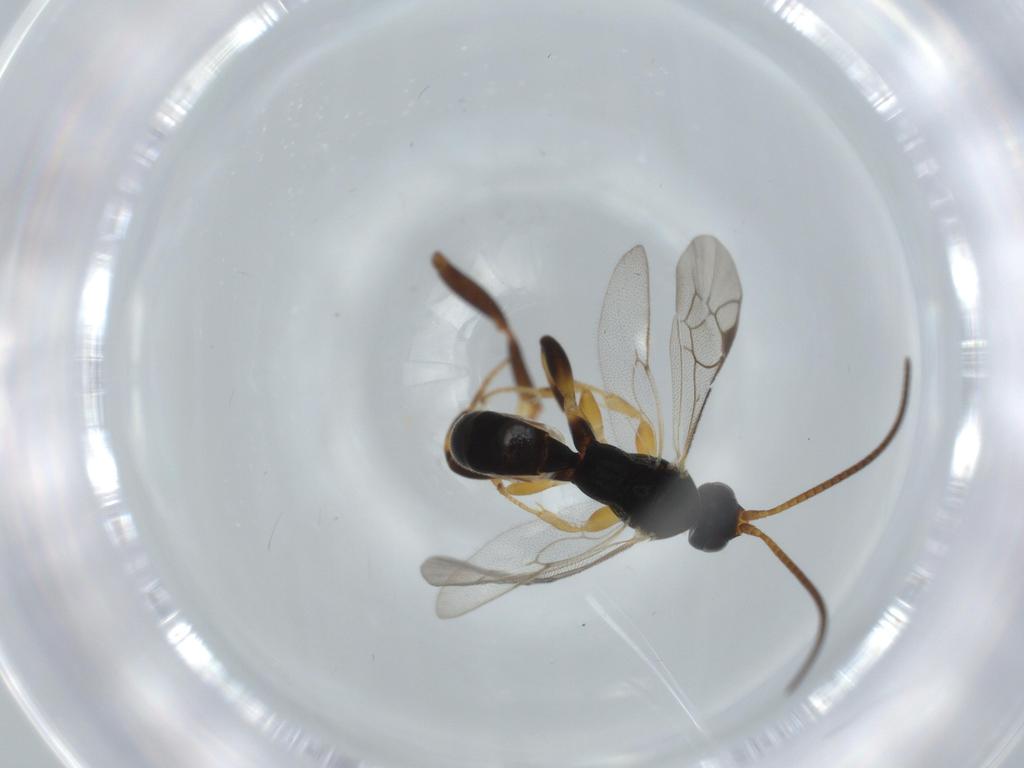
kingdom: Animalia
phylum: Arthropoda
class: Insecta
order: Hymenoptera
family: Formicidae
